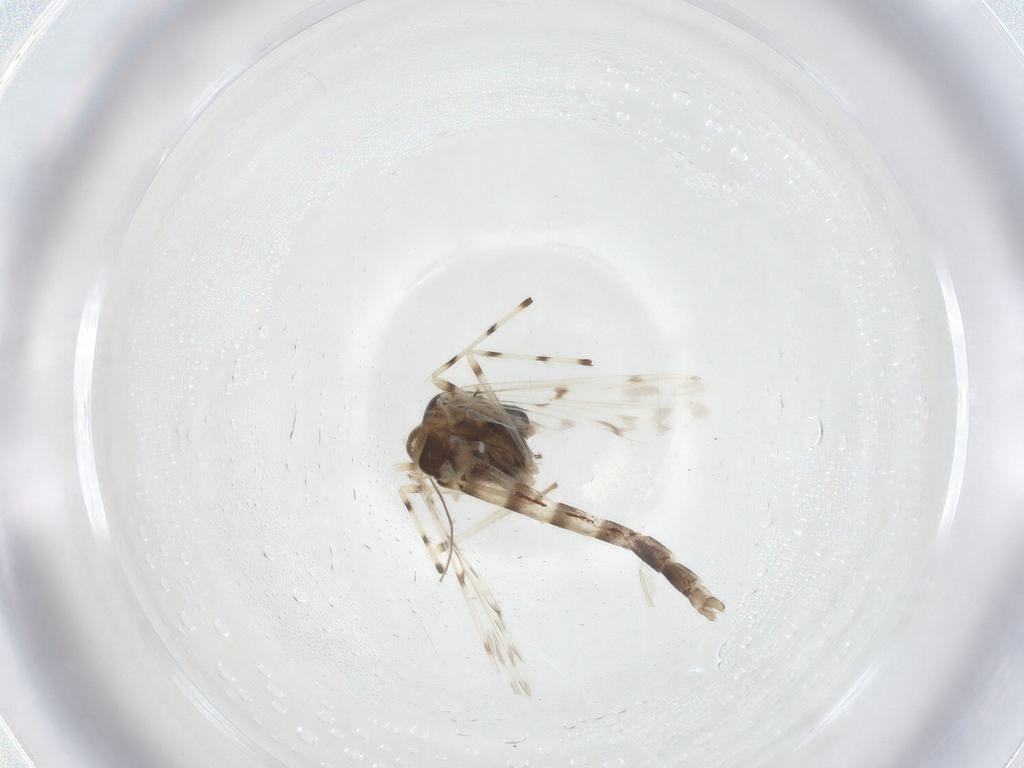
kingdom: Animalia
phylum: Arthropoda
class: Insecta
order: Diptera
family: Chironomidae
